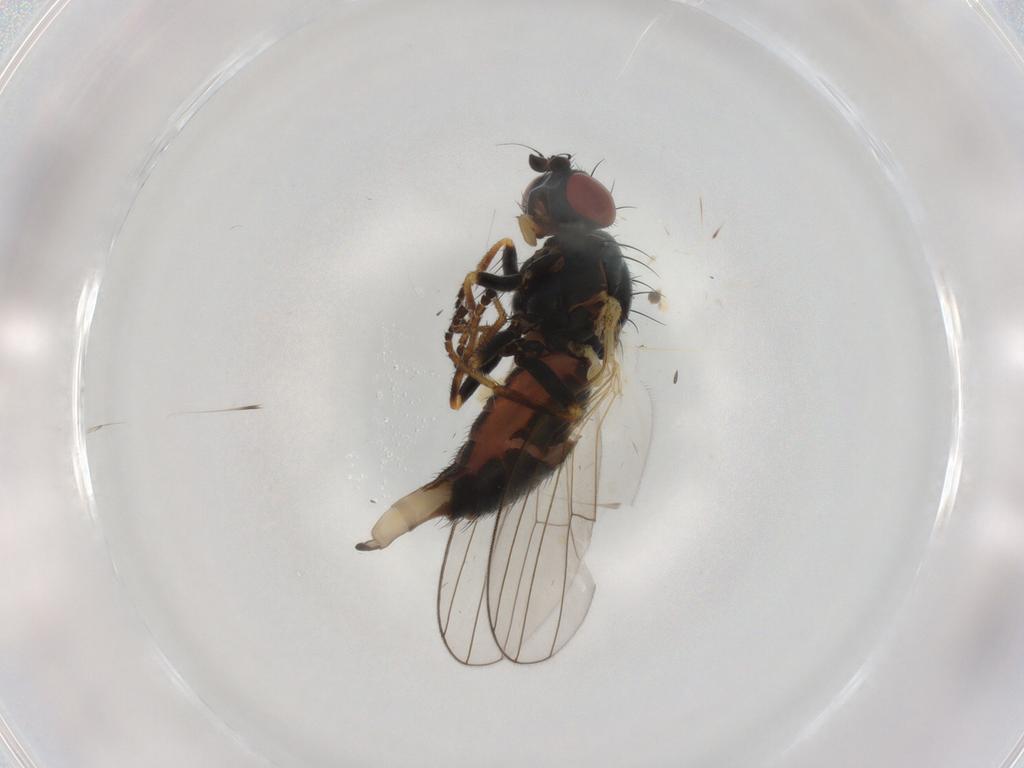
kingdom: Animalia
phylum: Arthropoda
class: Insecta
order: Diptera
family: Chamaemyiidae
